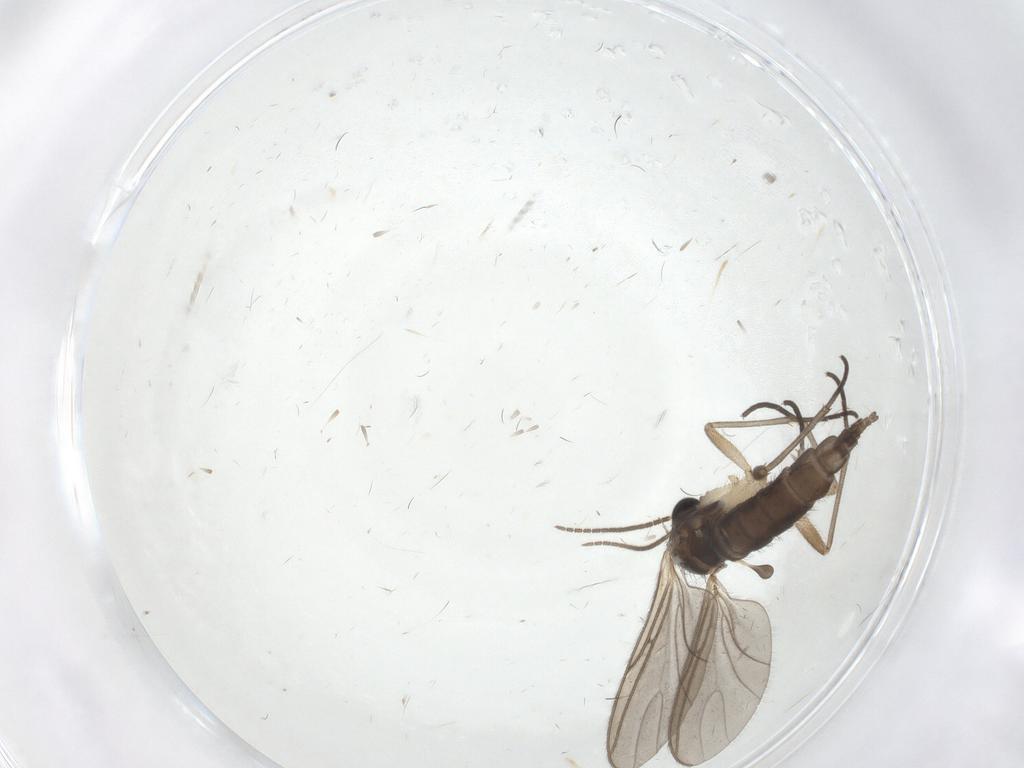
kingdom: Animalia
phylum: Arthropoda
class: Insecta
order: Diptera
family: Chironomidae
